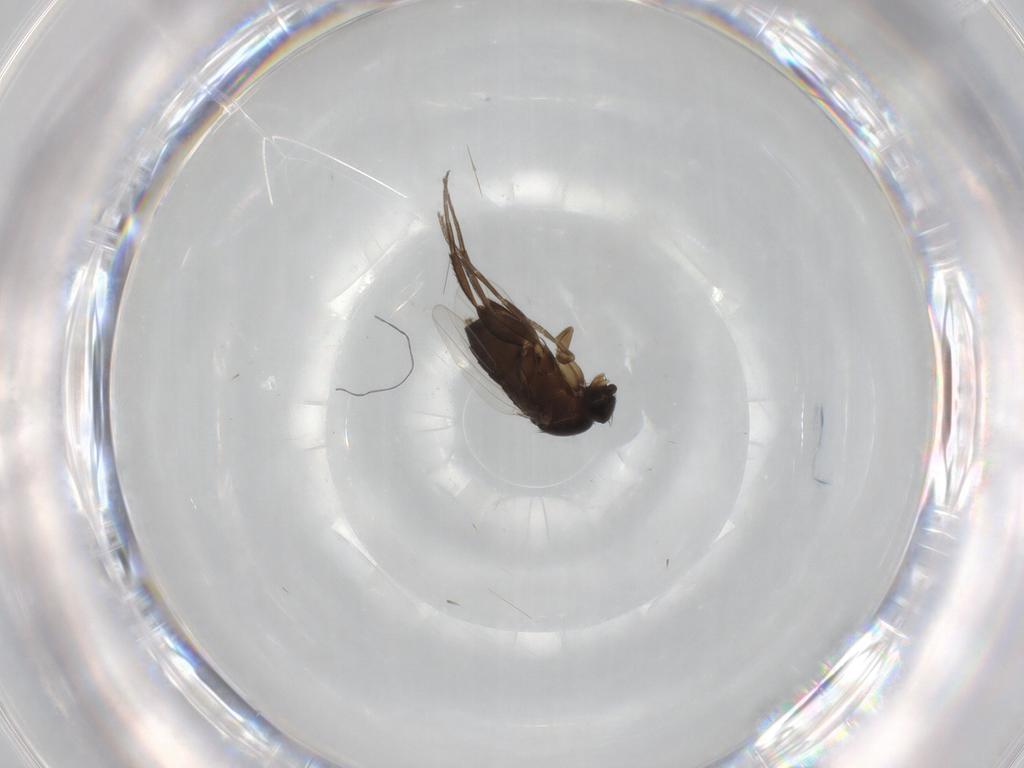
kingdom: Animalia
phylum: Arthropoda
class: Insecta
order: Diptera
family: Phoridae
